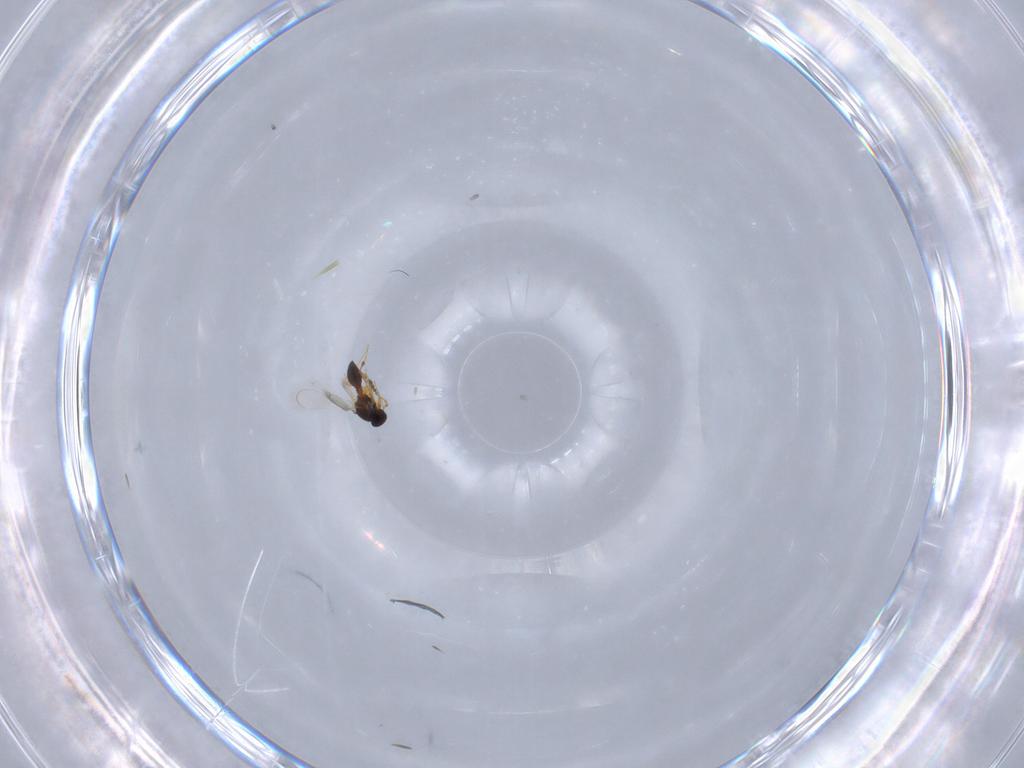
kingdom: Animalia
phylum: Arthropoda
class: Insecta
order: Hymenoptera
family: Platygastridae
